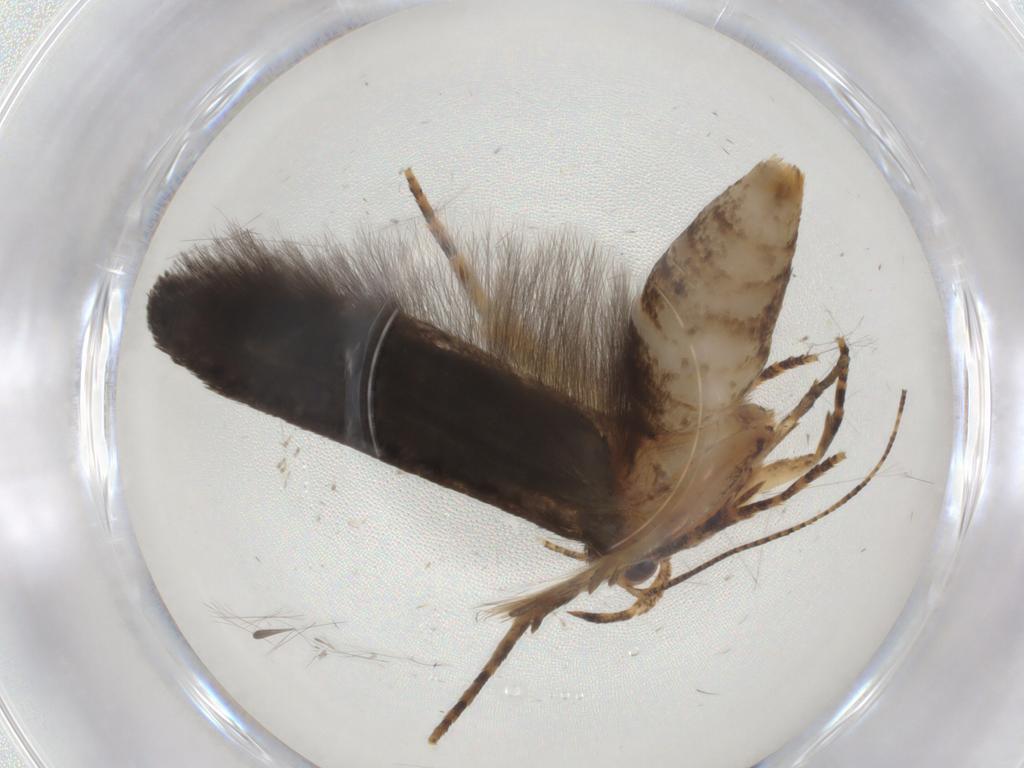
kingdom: Animalia
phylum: Arthropoda
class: Insecta
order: Lepidoptera
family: Gelechiidae
